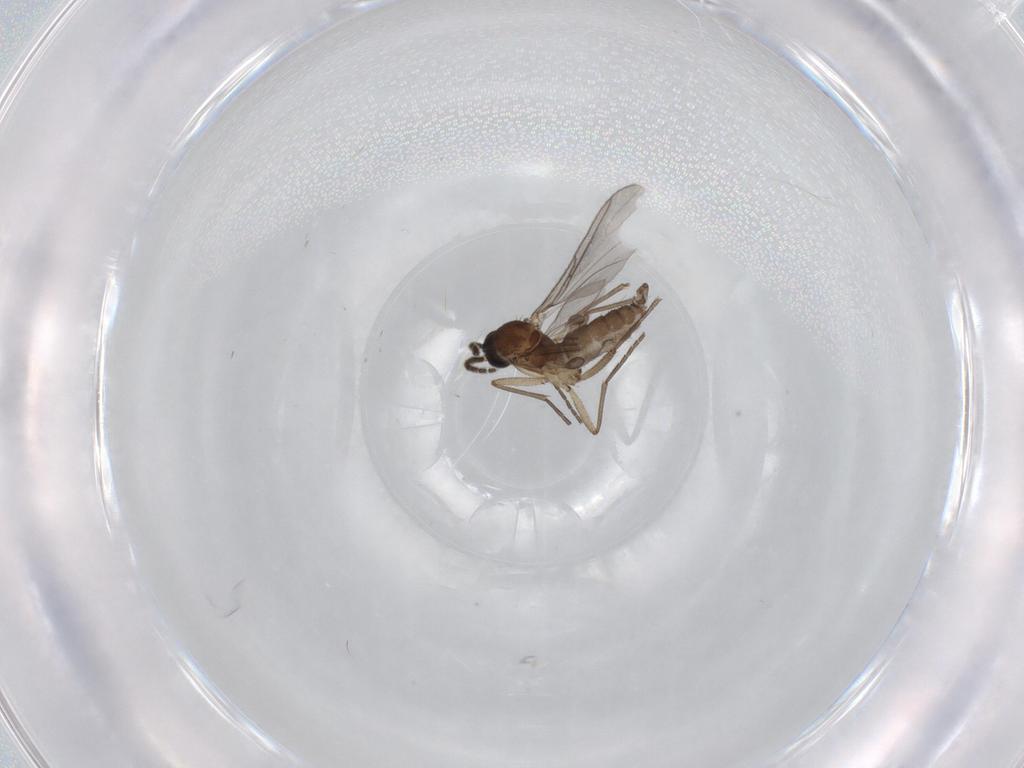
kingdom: Animalia
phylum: Arthropoda
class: Insecta
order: Diptera
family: Sciaridae
